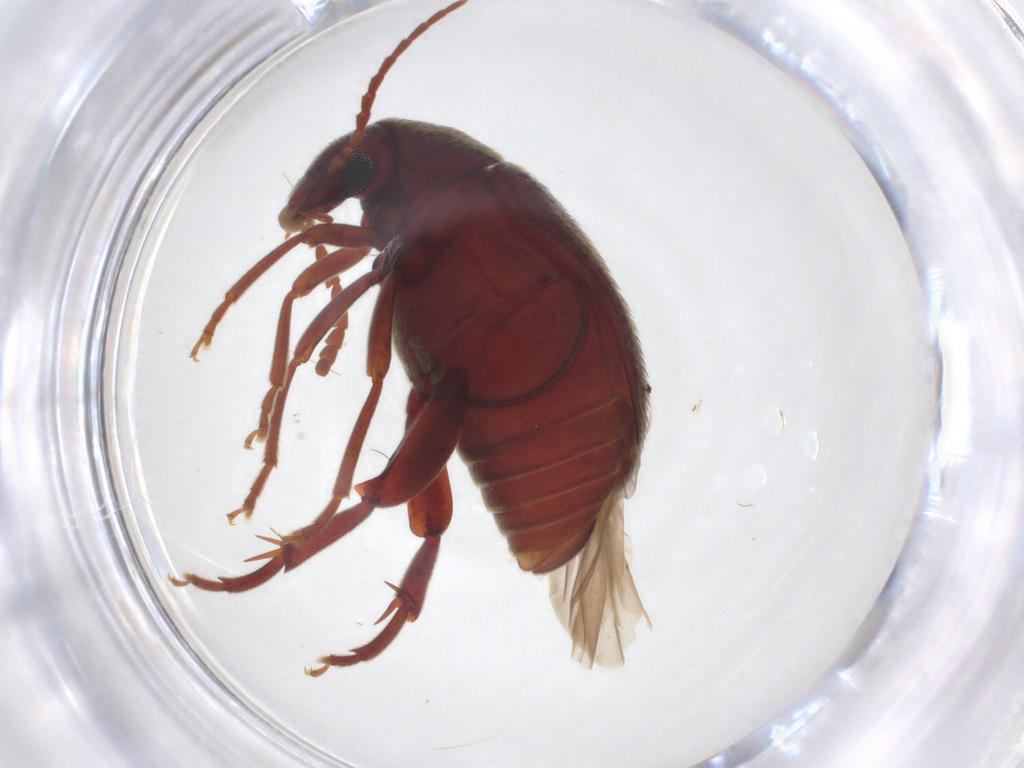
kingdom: Animalia
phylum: Arthropoda
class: Insecta
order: Coleoptera
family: Chrysomelidae
